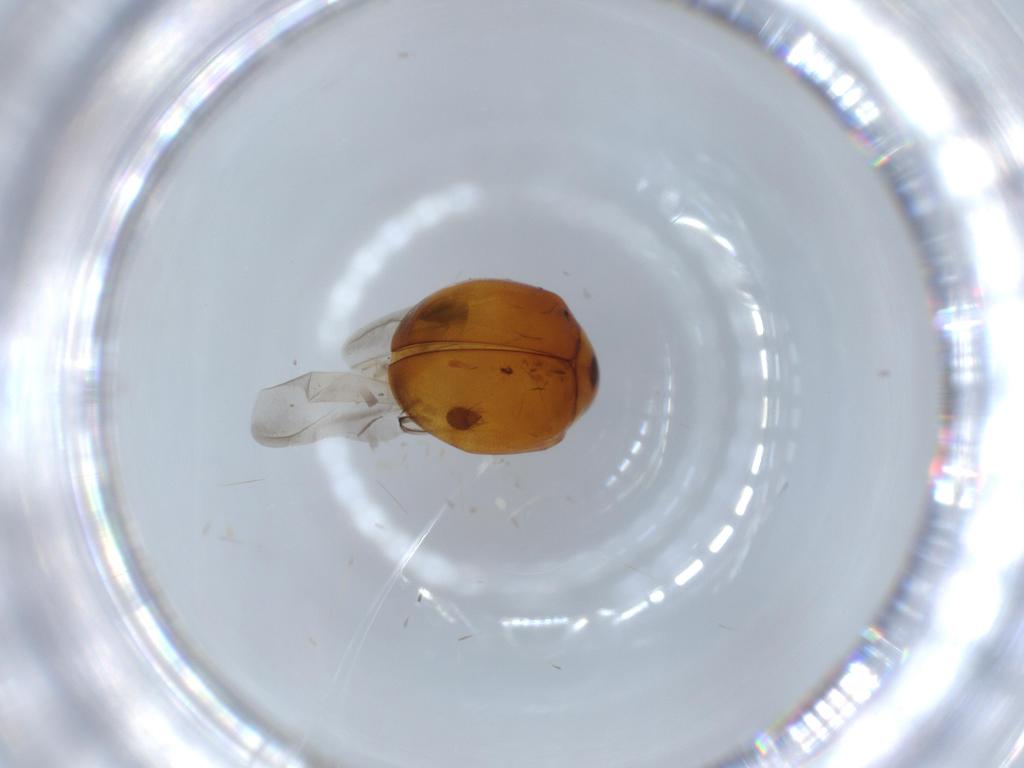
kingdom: Animalia
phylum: Arthropoda
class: Insecta
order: Coleoptera
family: Coccinellidae
